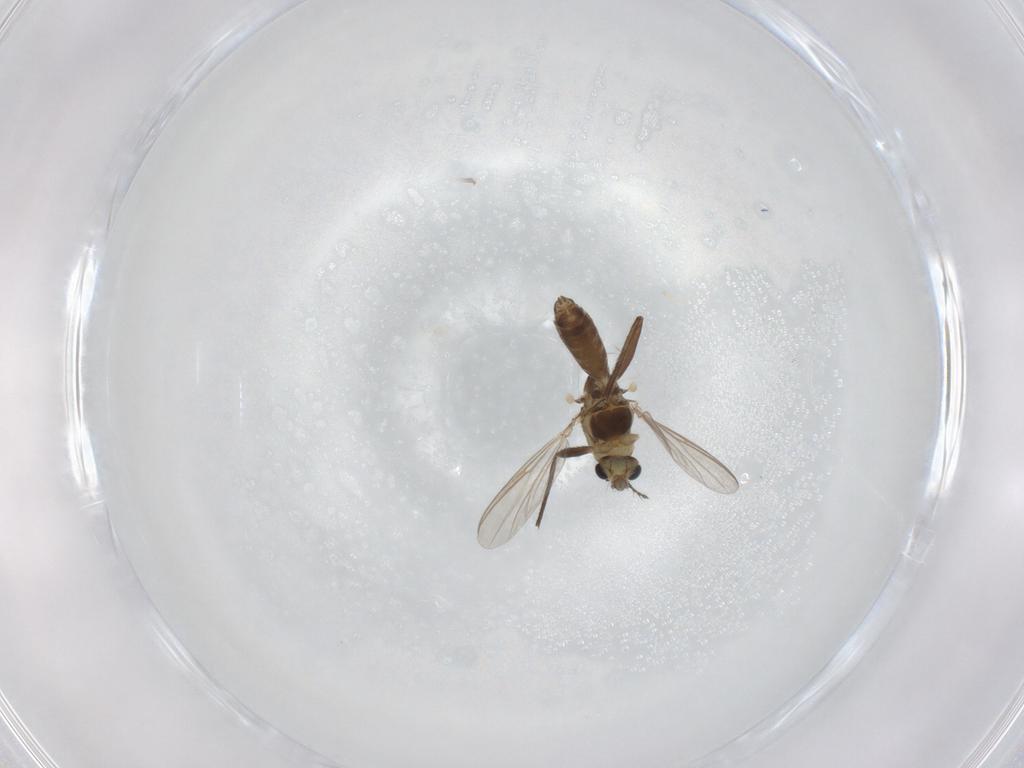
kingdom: Animalia
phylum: Arthropoda
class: Insecta
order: Diptera
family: Chironomidae
